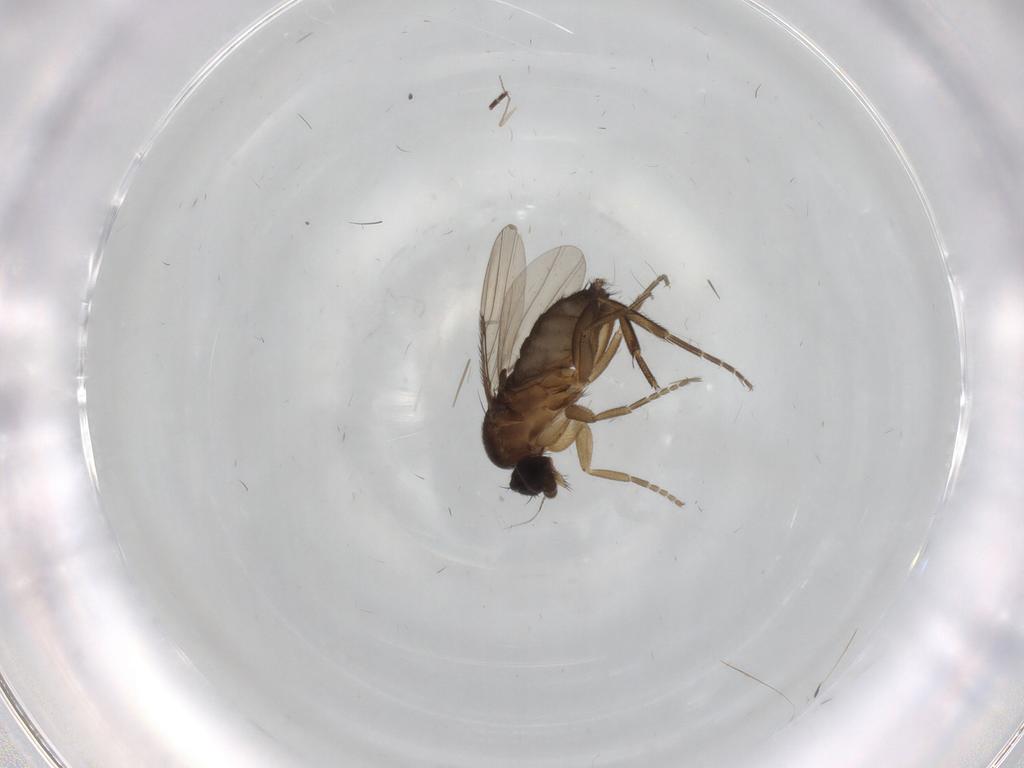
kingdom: Animalia
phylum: Arthropoda
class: Insecta
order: Diptera
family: Phoridae
